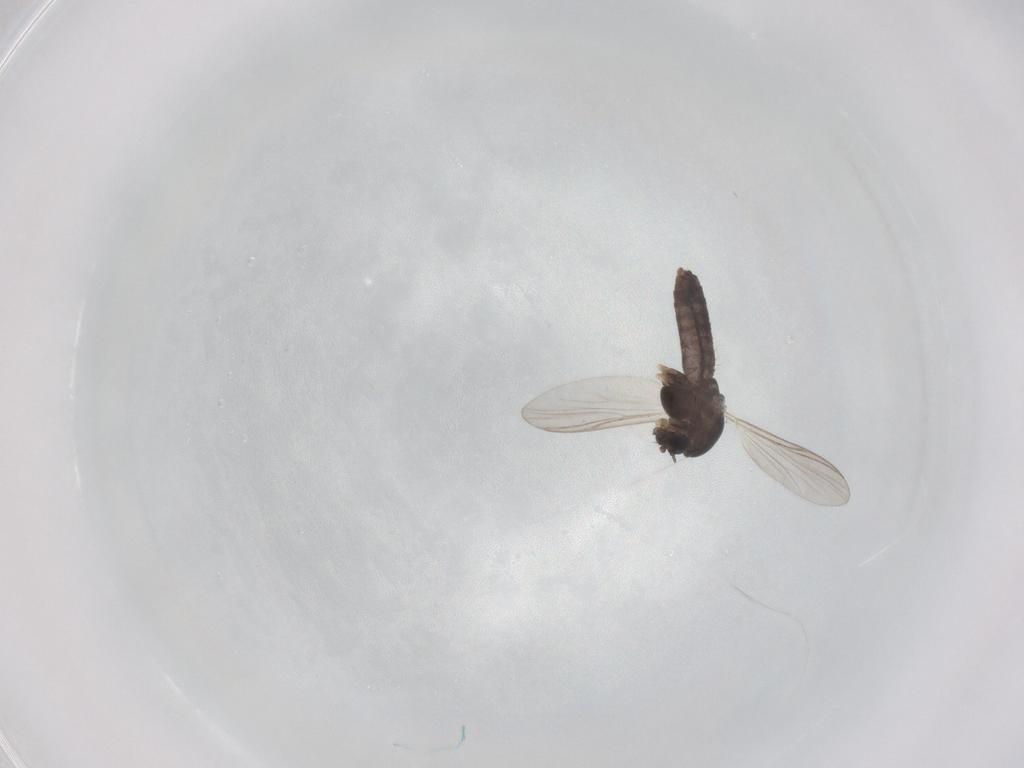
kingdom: Animalia
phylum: Arthropoda
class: Insecta
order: Diptera
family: Chironomidae
